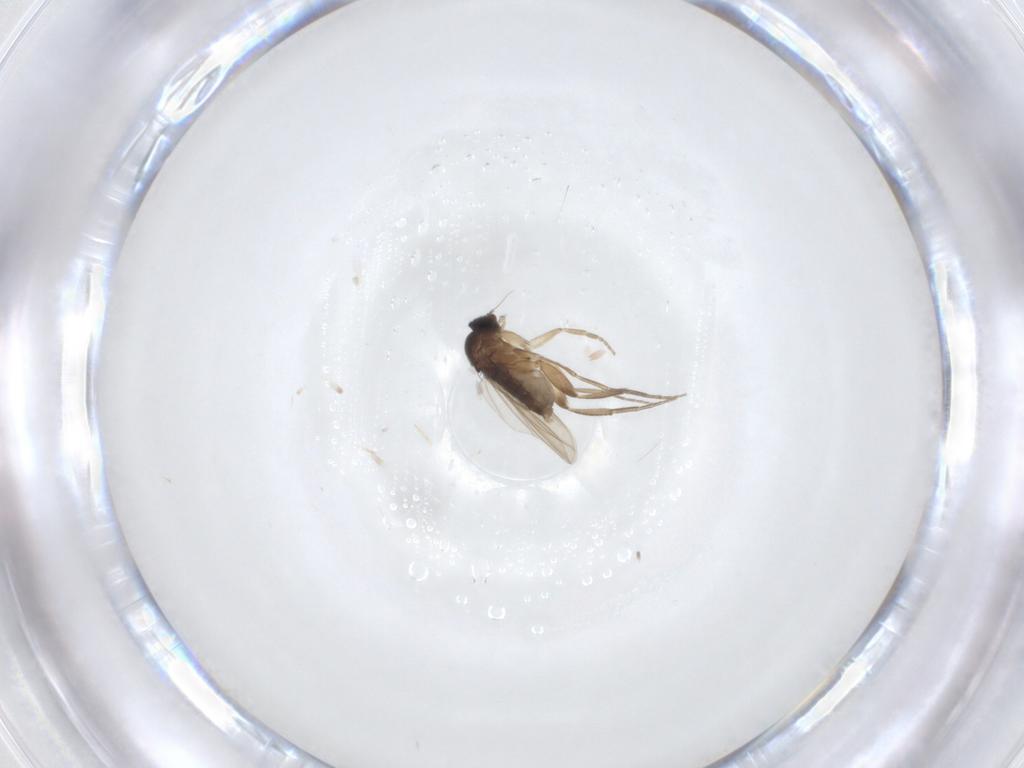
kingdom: Animalia
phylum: Arthropoda
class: Insecta
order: Diptera
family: Phoridae
